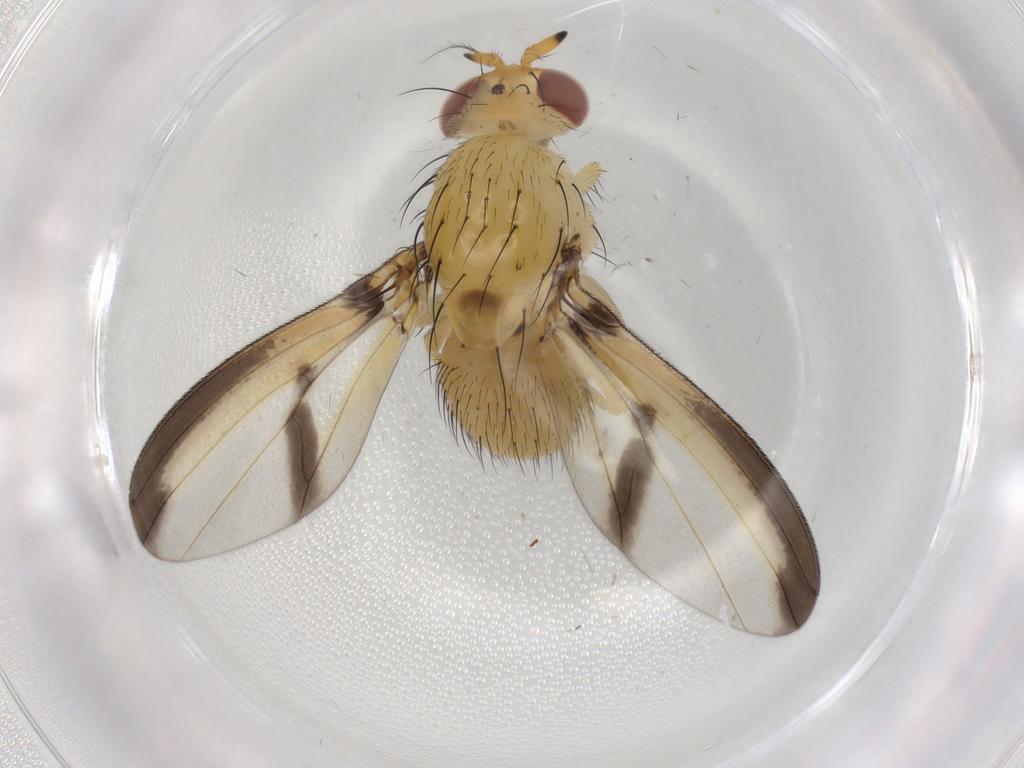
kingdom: Animalia
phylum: Arthropoda
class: Insecta
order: Diptera
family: Lauxaniidae
